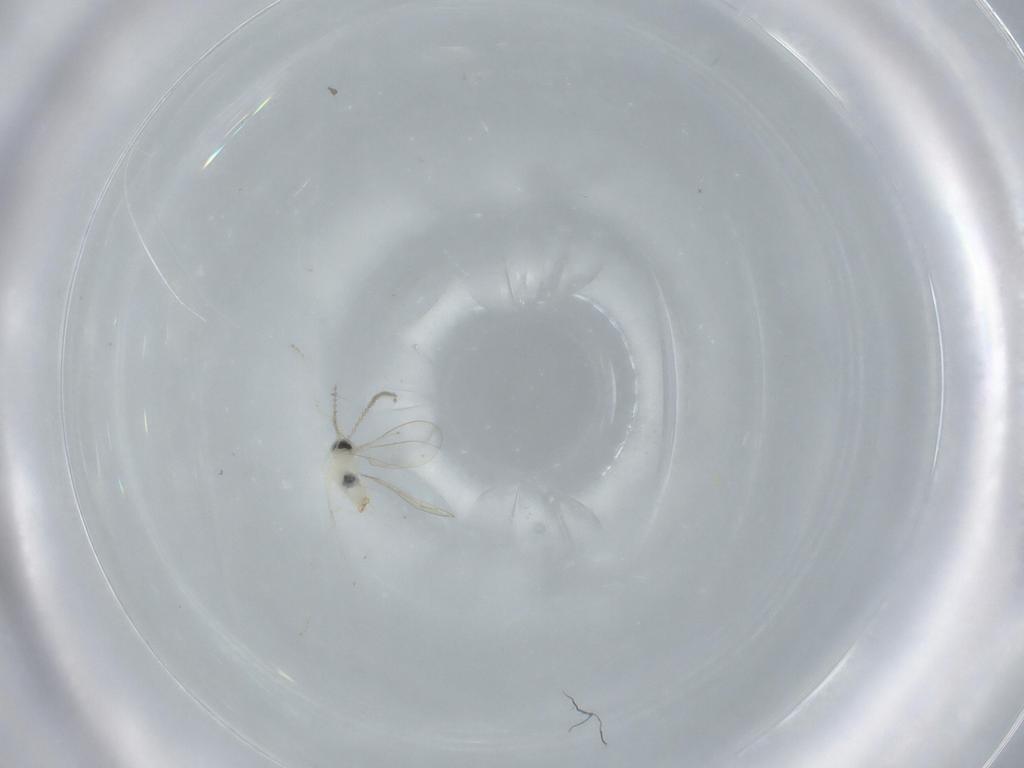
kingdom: Animalia
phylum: Arthropoda
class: Insecta
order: Diptera
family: Cecidomyiidae
